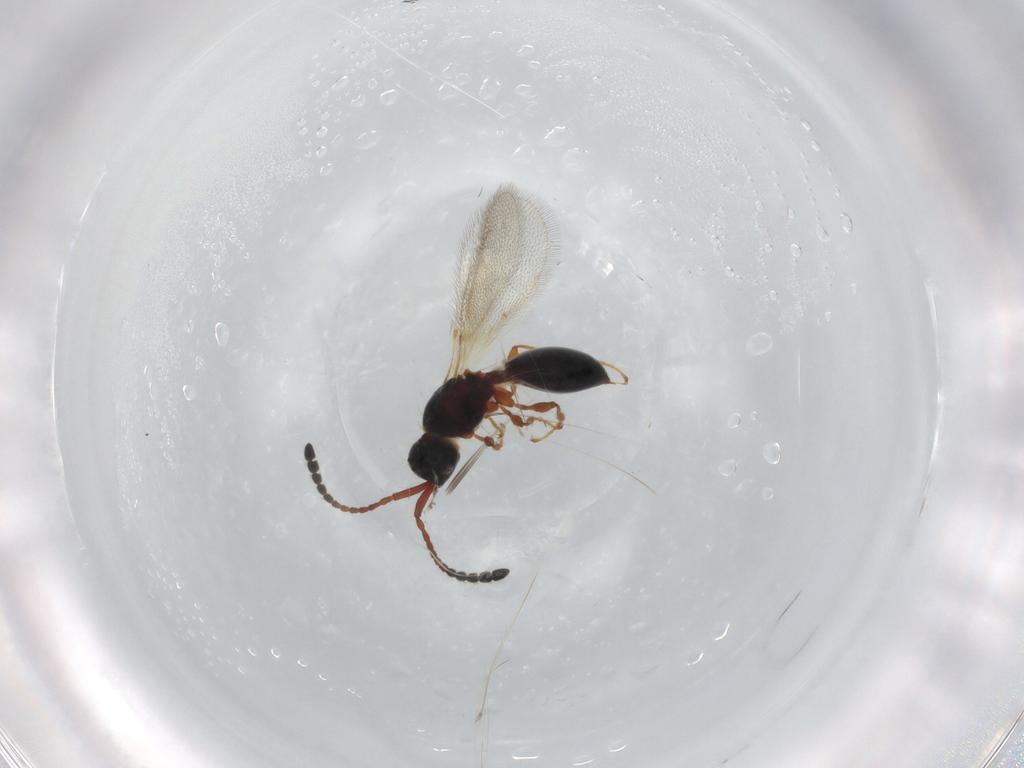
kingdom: Animalia
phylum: Arthropoda
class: Insecta
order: Hymenoptera
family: Diapriidae
